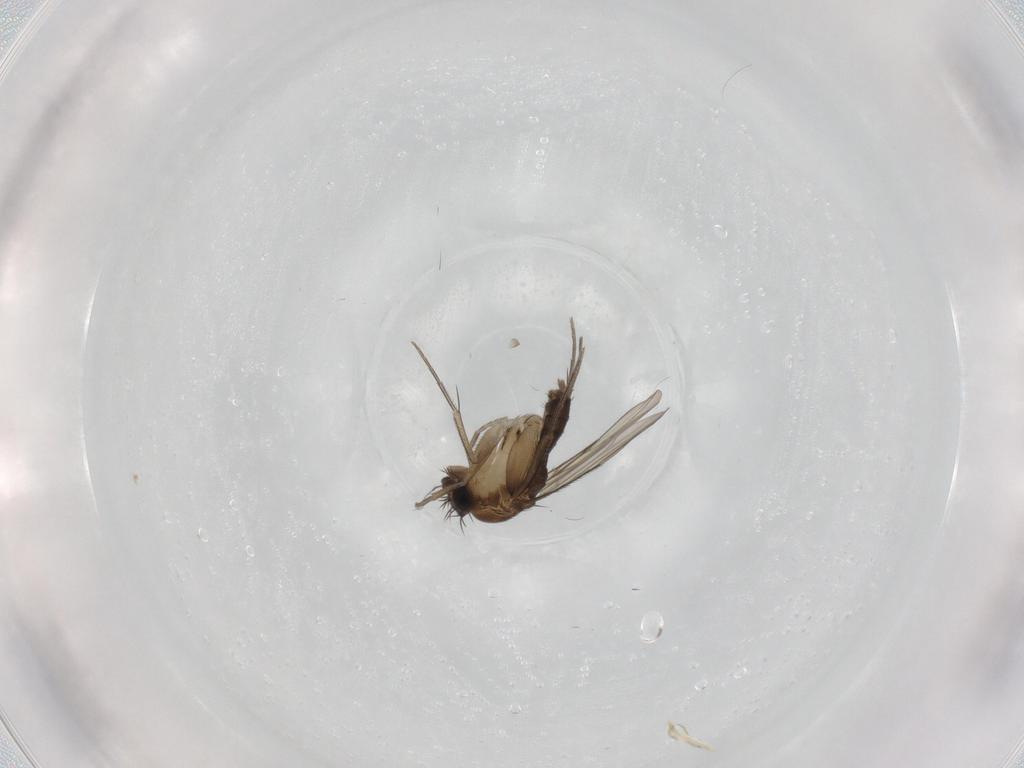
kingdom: Animalia
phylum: Arthropoda
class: Insecta
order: Diptera
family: Phoridae
